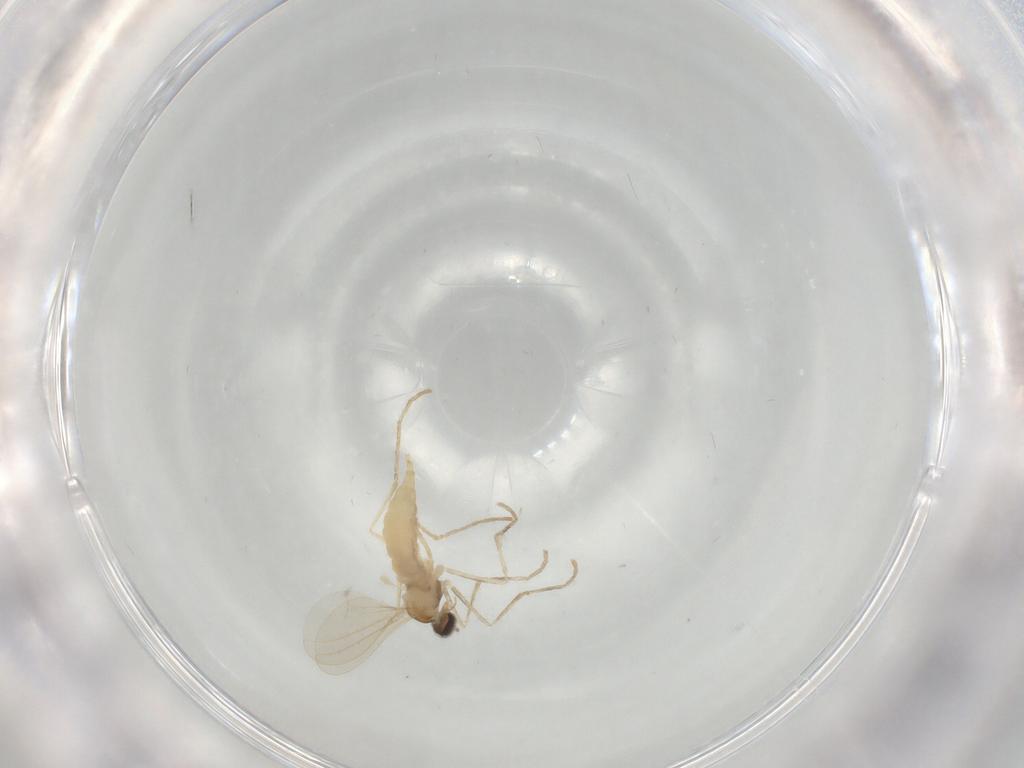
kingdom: Animalia
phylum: Arthropoda
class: Insecta
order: Diptera
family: Cecidomyiidae
